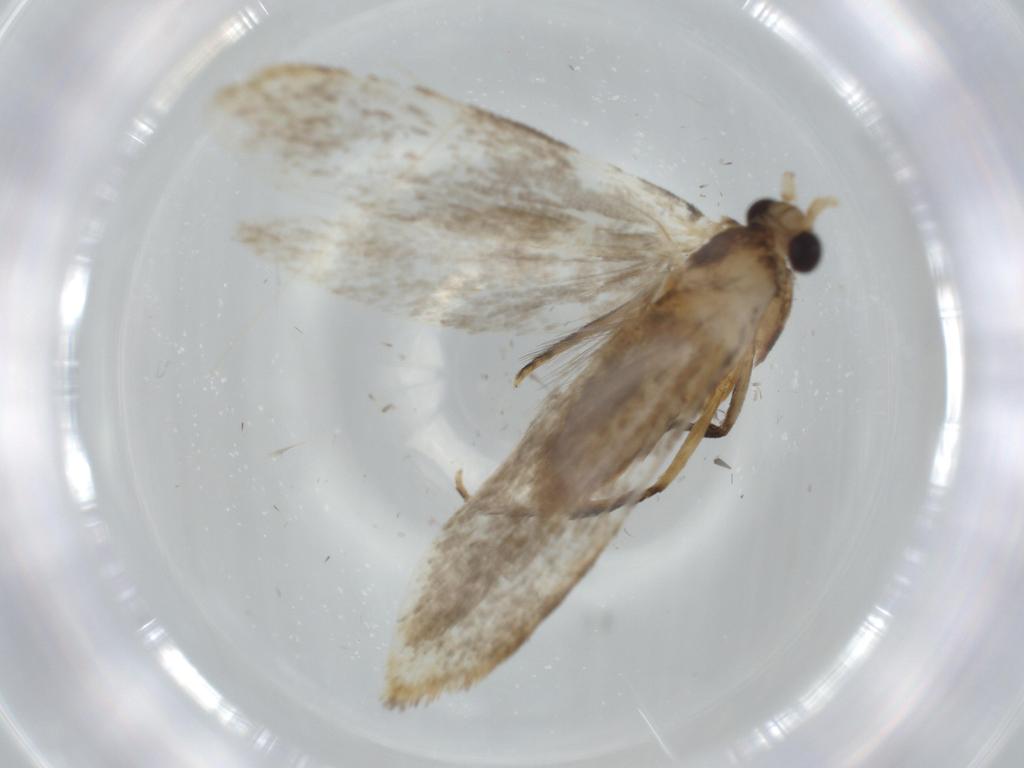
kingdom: Animalia
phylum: Arthropoda
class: Insecta
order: Lepidoptera
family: Tineidae
